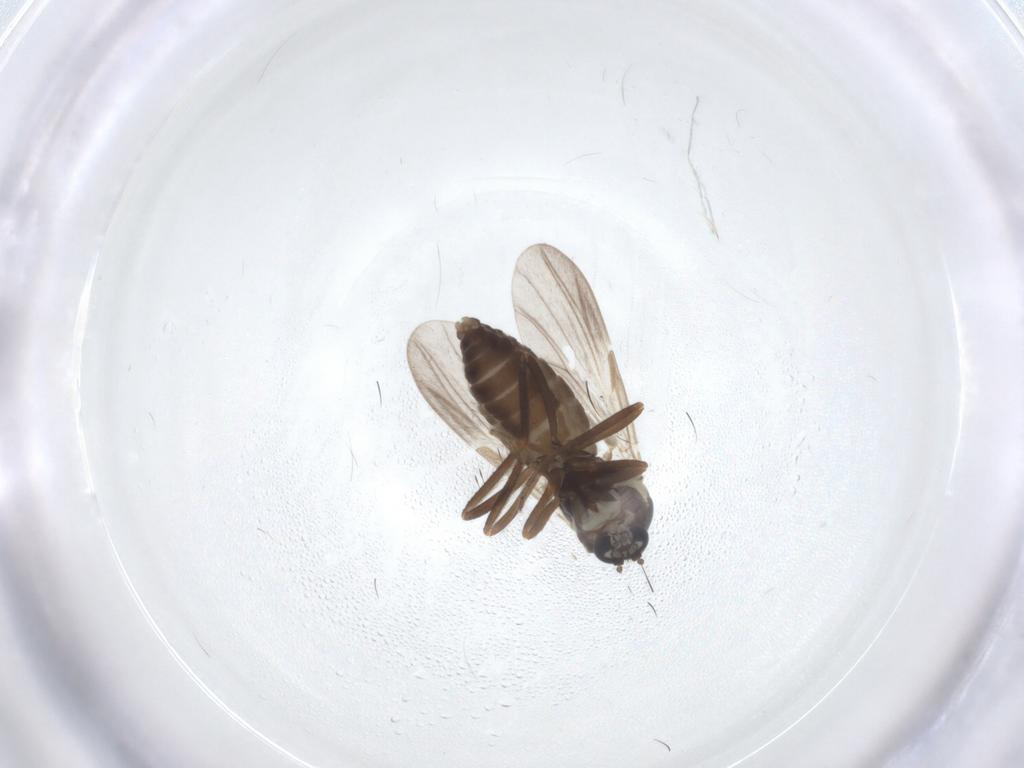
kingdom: Animalia
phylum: Arthropoda
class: Insecta
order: Diptera
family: Ceratopogonidae
